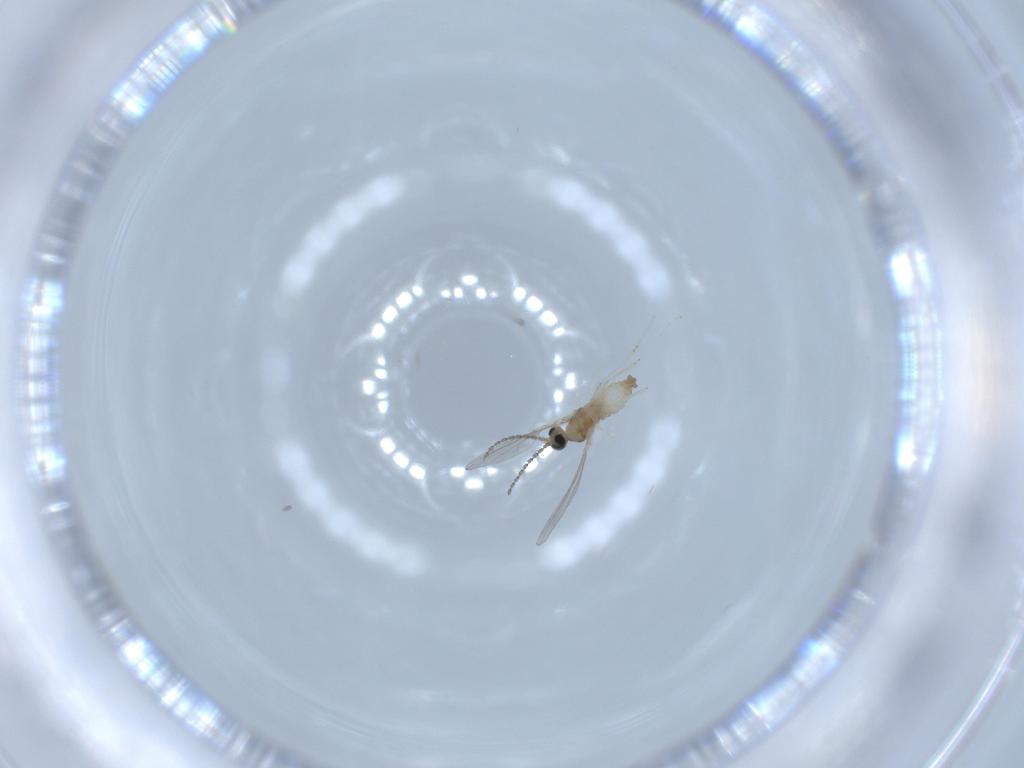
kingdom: Animalia
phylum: Arthropoda
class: Insecta
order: Diptera
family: Cecidomyiidae
